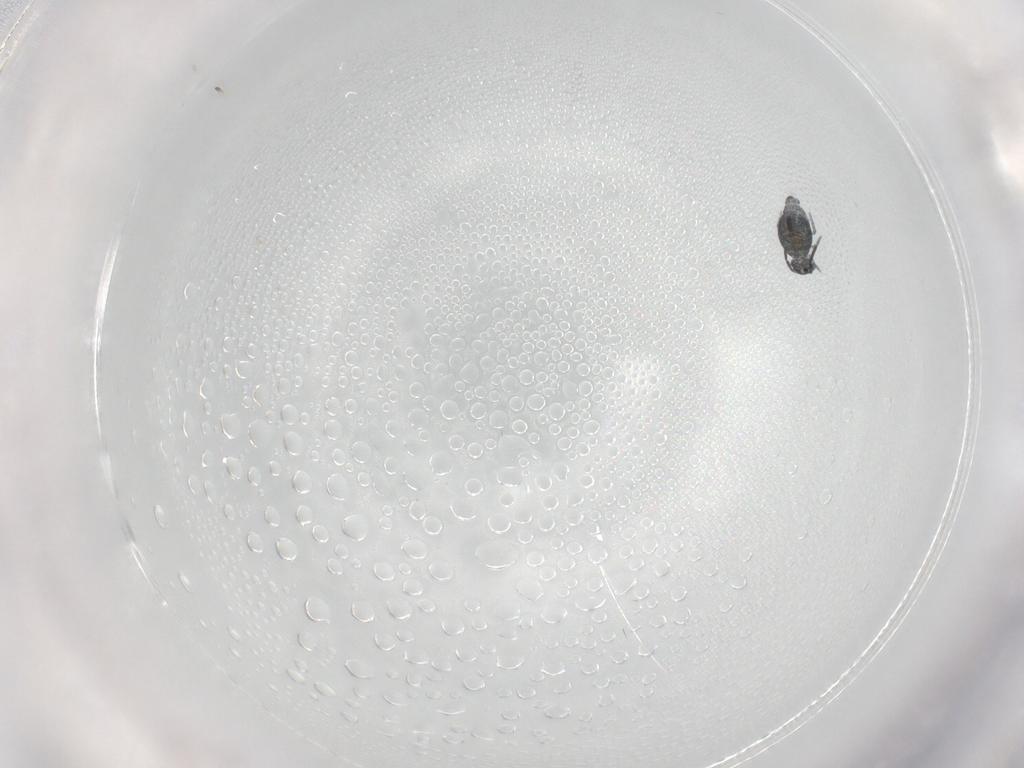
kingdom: Animalia
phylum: Arthropoda
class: Collembola
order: Symphypleona
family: Katiannidae
